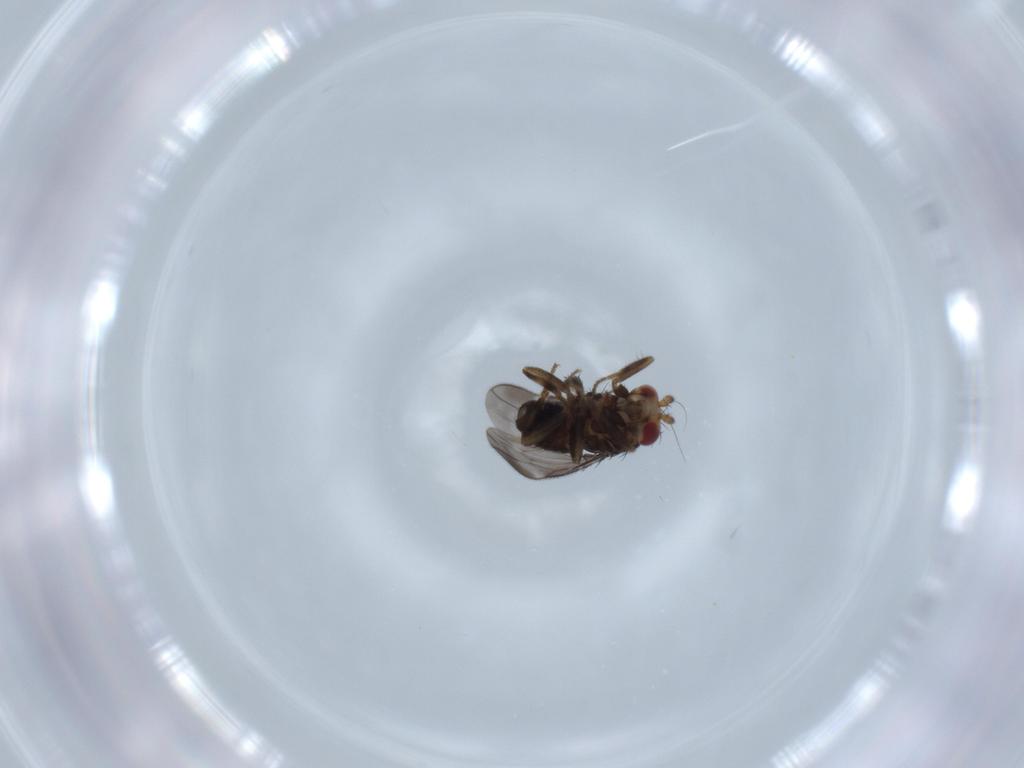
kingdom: Animalia
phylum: Arthropoda
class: Insecta
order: Diptera
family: Sphaeroceridae
